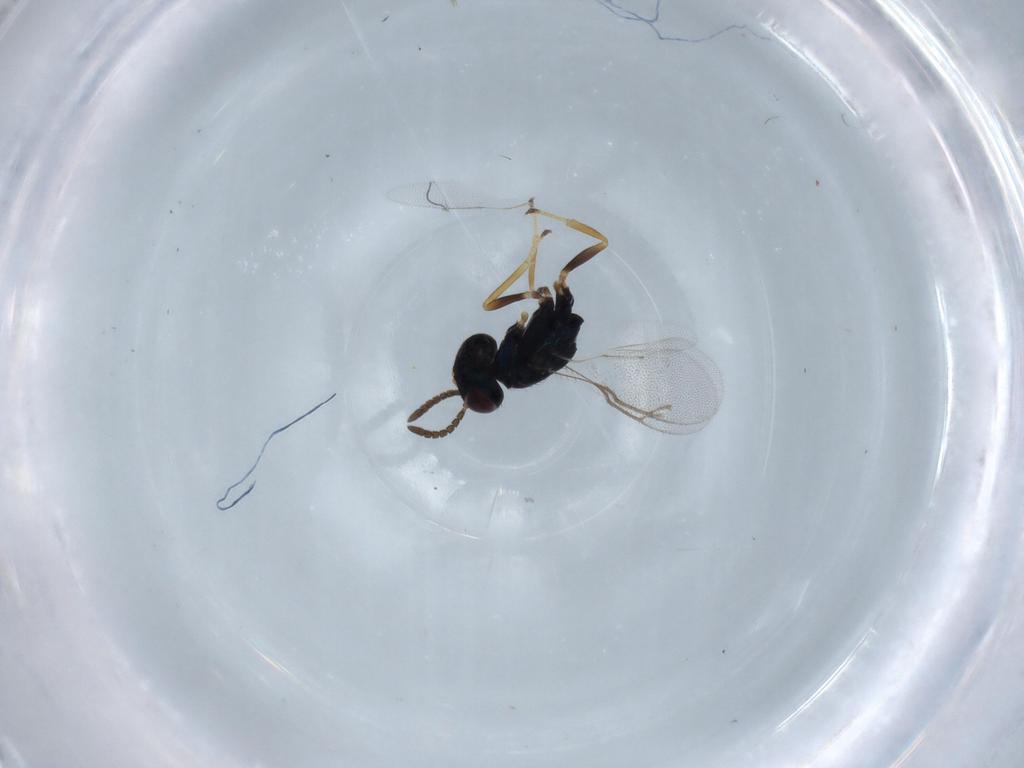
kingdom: Animalia
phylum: Arthropoda
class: Insecta
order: Hymenoptera
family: Pteromalidae
